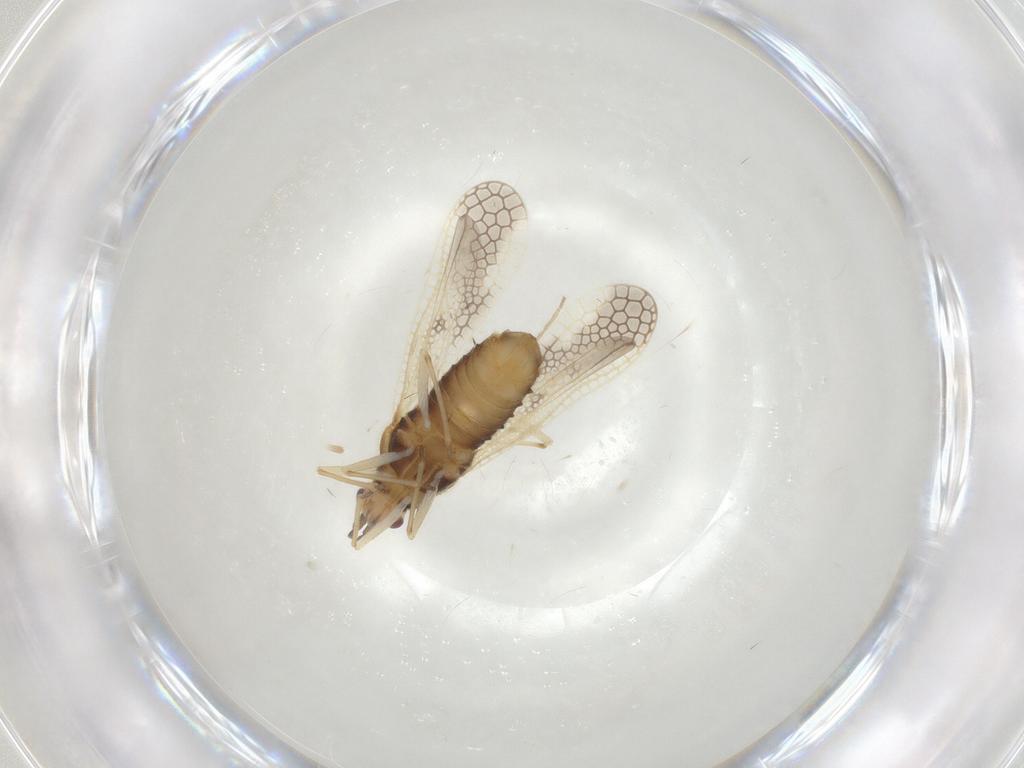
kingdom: Animalia
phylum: Arthropoda
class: Insecta
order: Hemiptera
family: Tingidae
